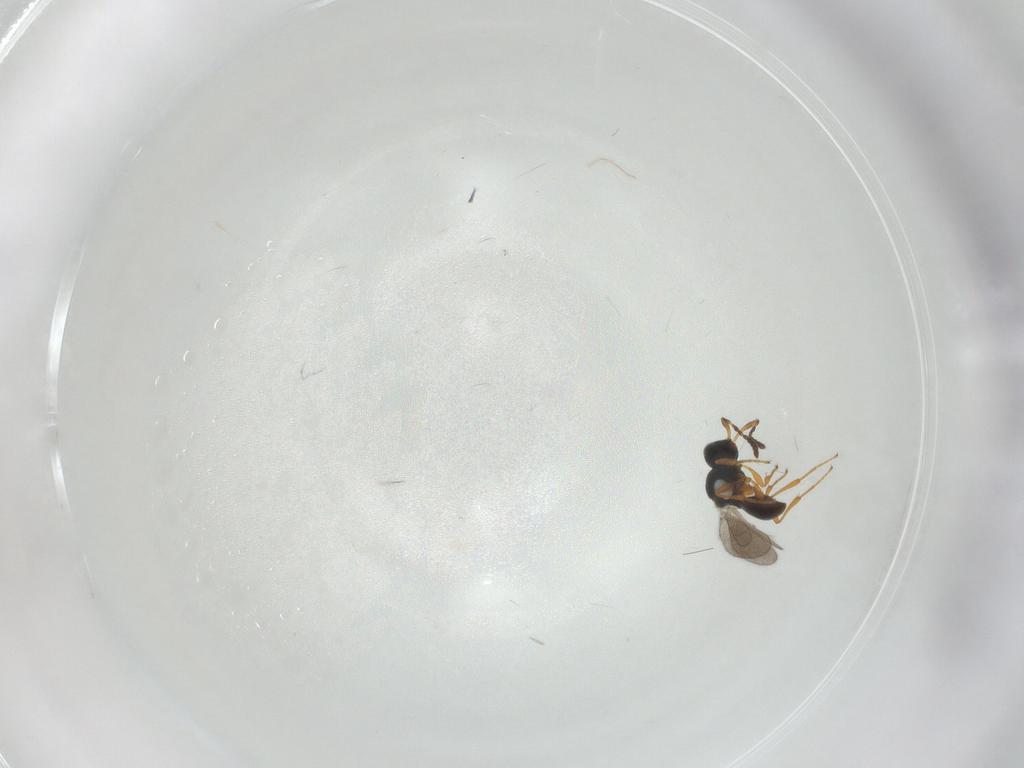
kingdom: Animalia
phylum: Arthropoda
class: Insecta
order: Hymenoptera
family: Platygastridae
